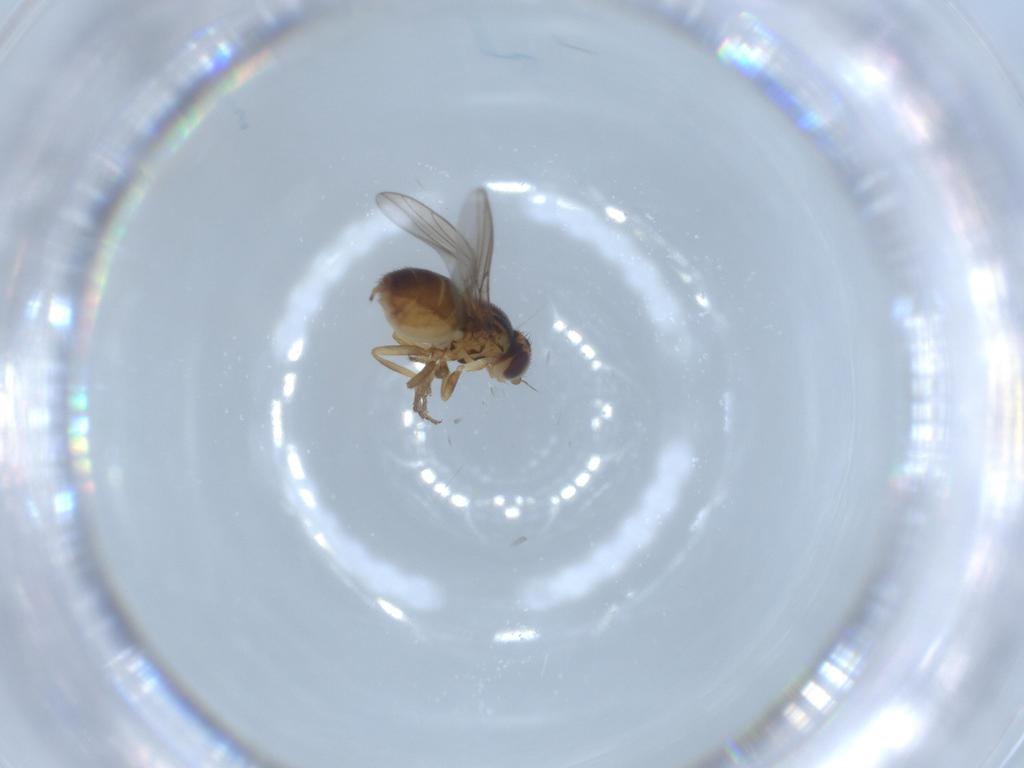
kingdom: Animalia
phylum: Arthropoda
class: Insecta
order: Diptera
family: Chloropidae
